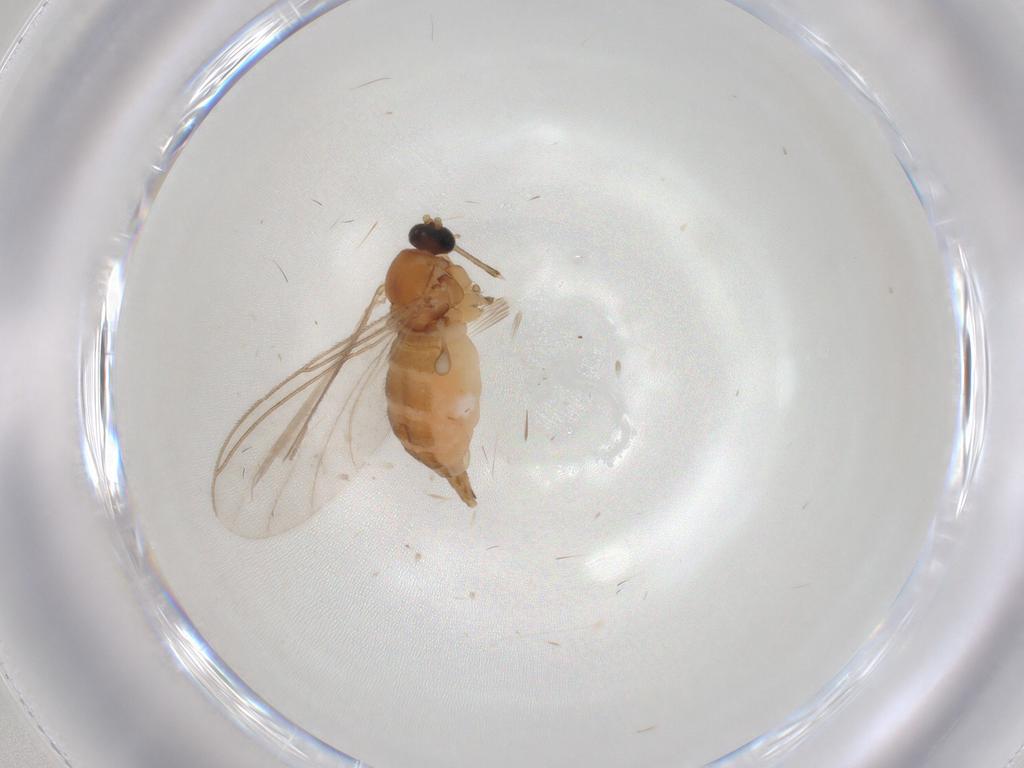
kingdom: Animalia
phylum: Arthropoda
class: Insecta
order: Diptera
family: Sciaridae
